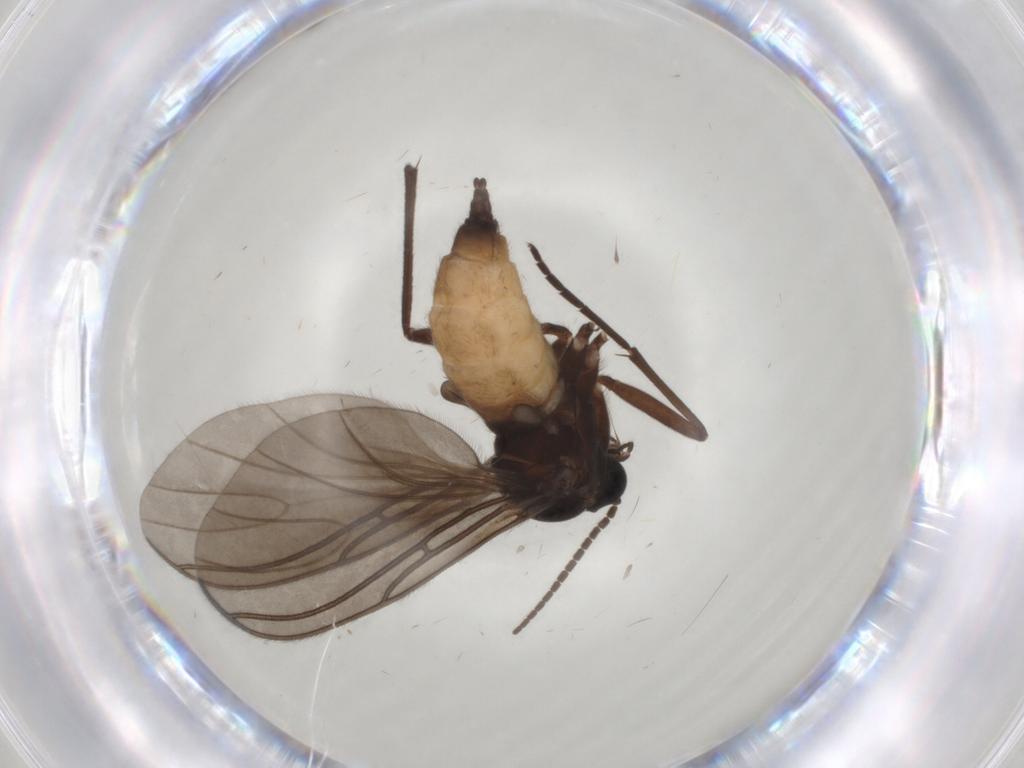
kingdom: Animalia
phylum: Arthropoda
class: Insecta
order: Diptera
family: Sciaridae
